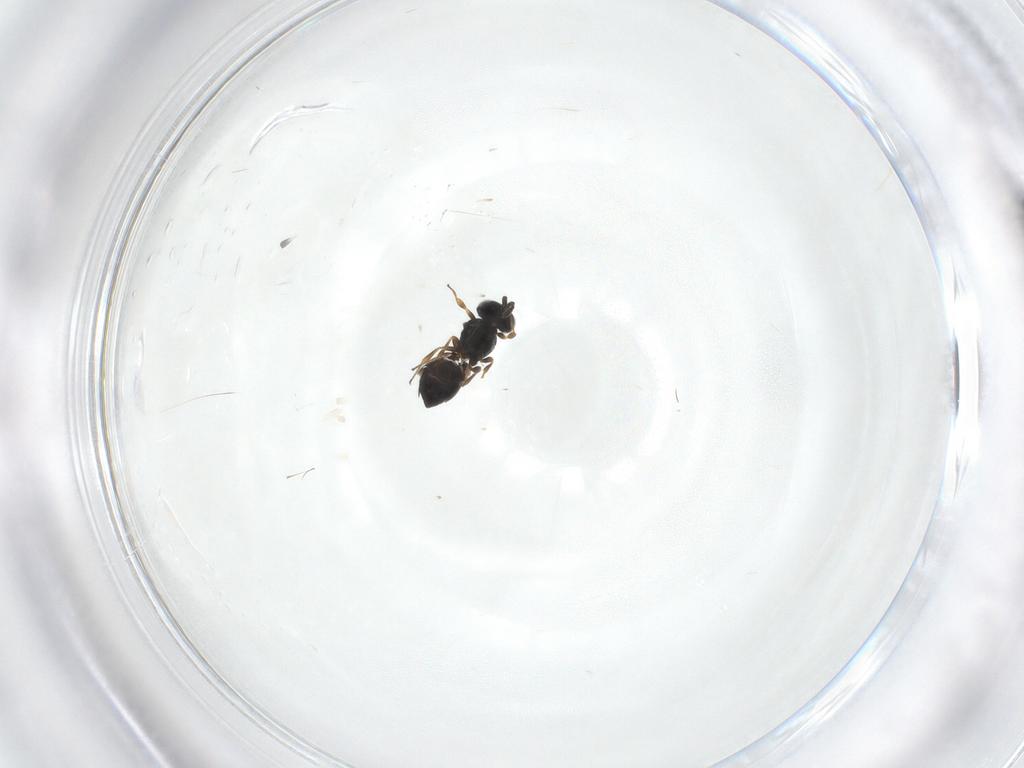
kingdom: Animalia
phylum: Arthropoda
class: Insecta
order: Hymenoptera
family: Scelionidae
